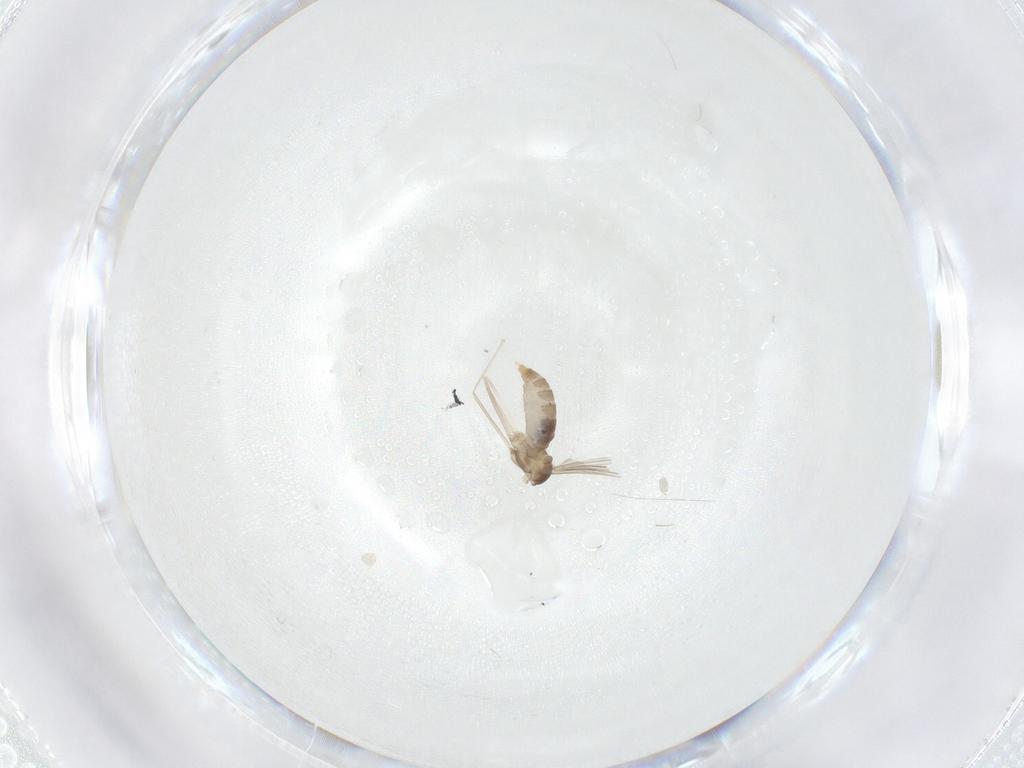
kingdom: Animalia
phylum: Arthropoda
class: Insecta
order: Diptera
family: Cecidomyiidae
